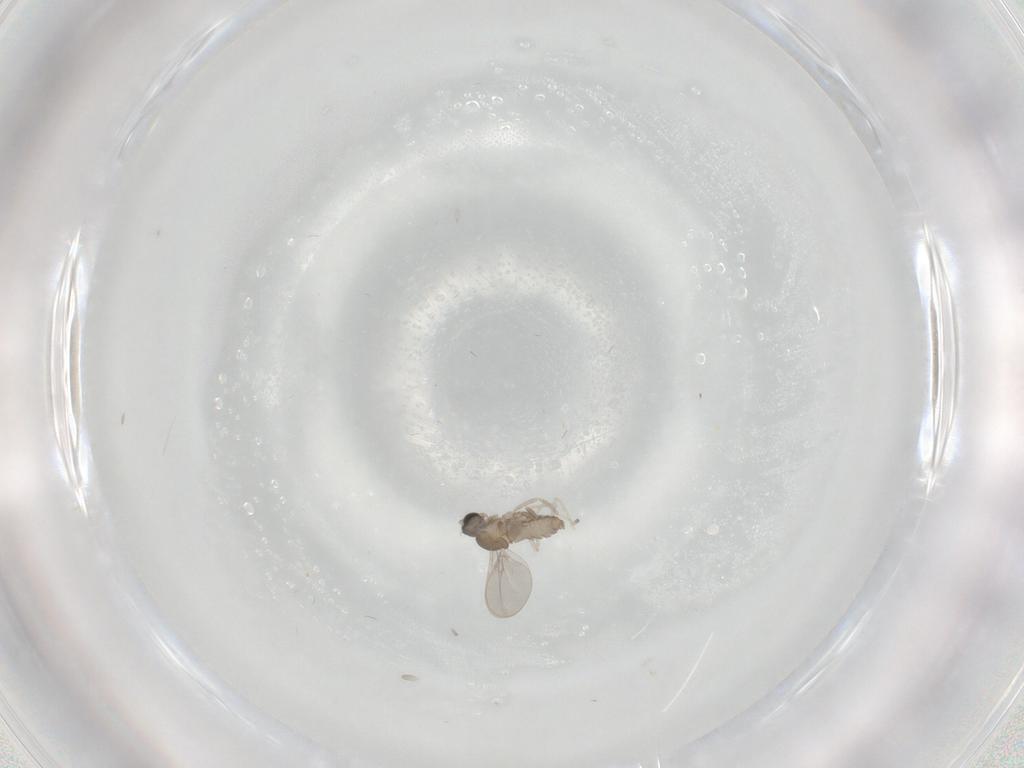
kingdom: Animalia
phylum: Arthropoda
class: Insecta
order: Diptera
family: Cecidomyiidae
